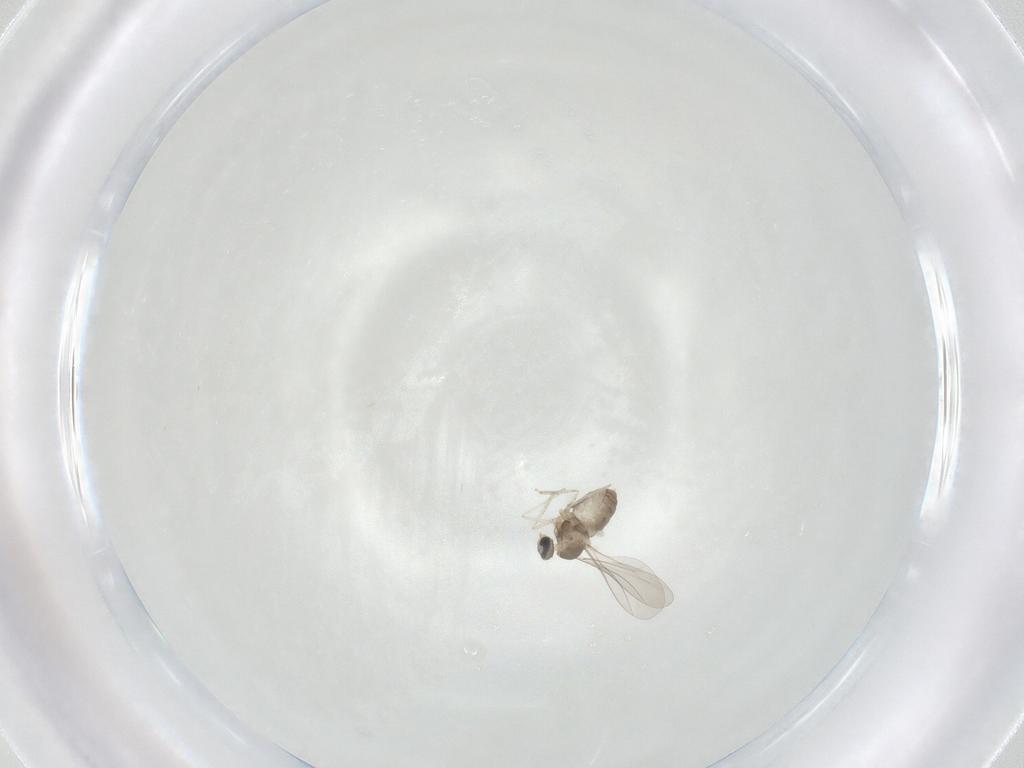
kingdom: Animalia
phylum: Arthropoda
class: Insecta
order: Diptera
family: Cecidomyiidae
